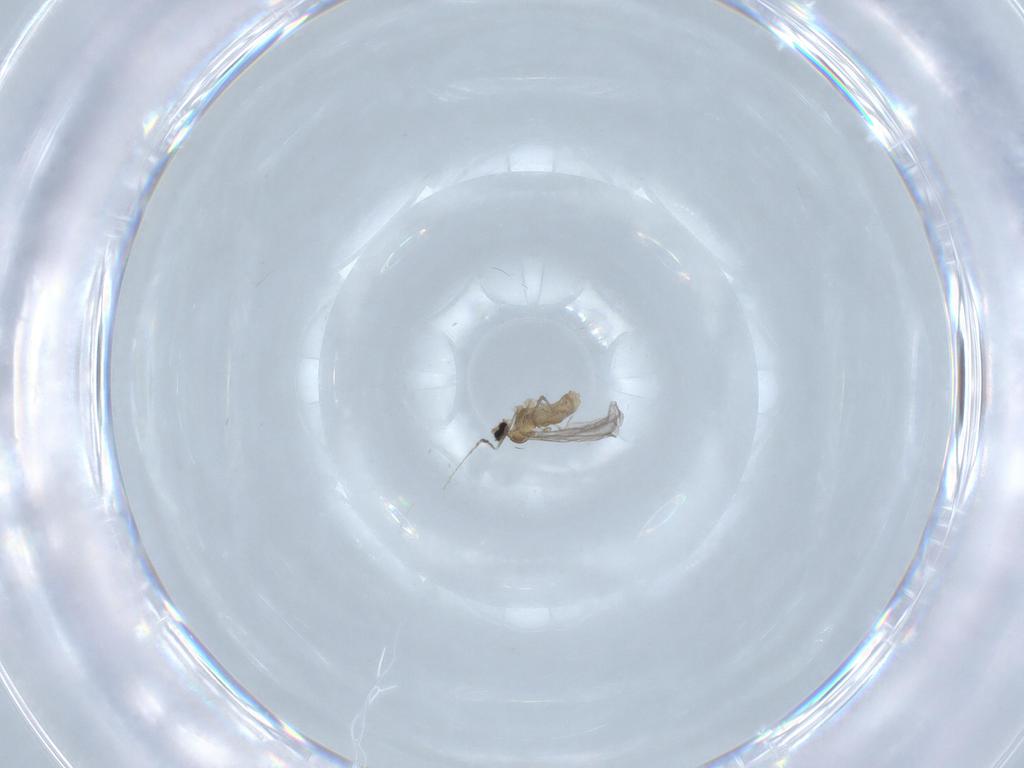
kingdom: Animalia
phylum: Arthropoda
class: Insecta
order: Diptera
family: Cecidomyiidae
